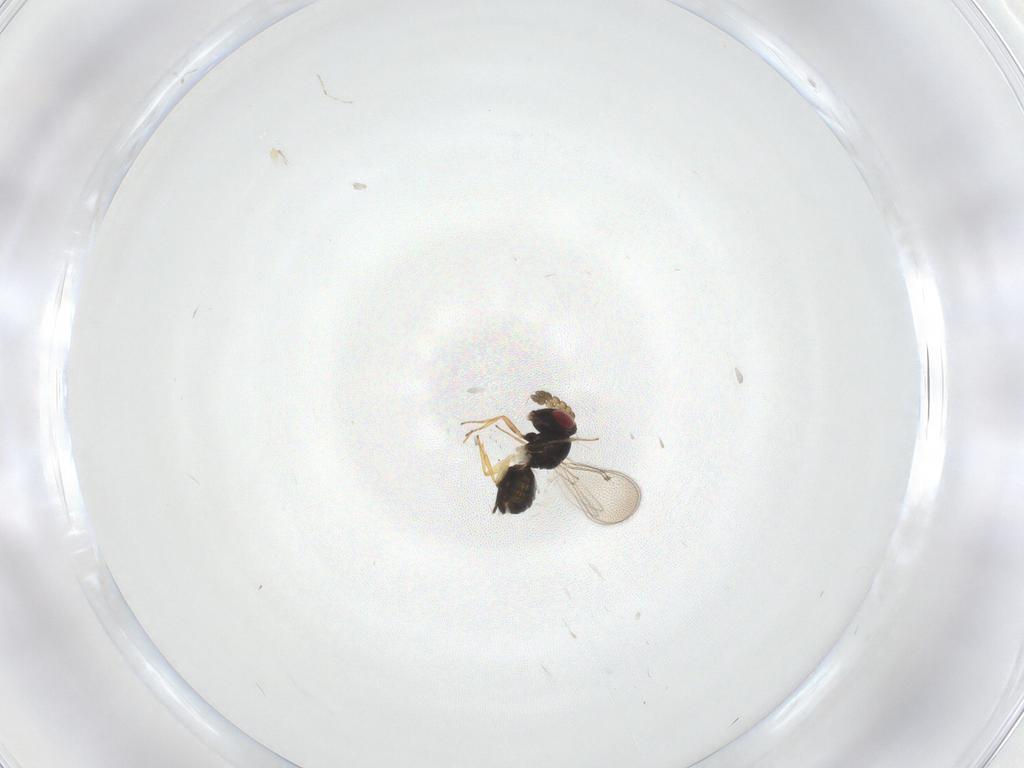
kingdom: Animalia
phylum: Arthropoda
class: Insecta
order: Hymenoptera
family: Eulophidae
